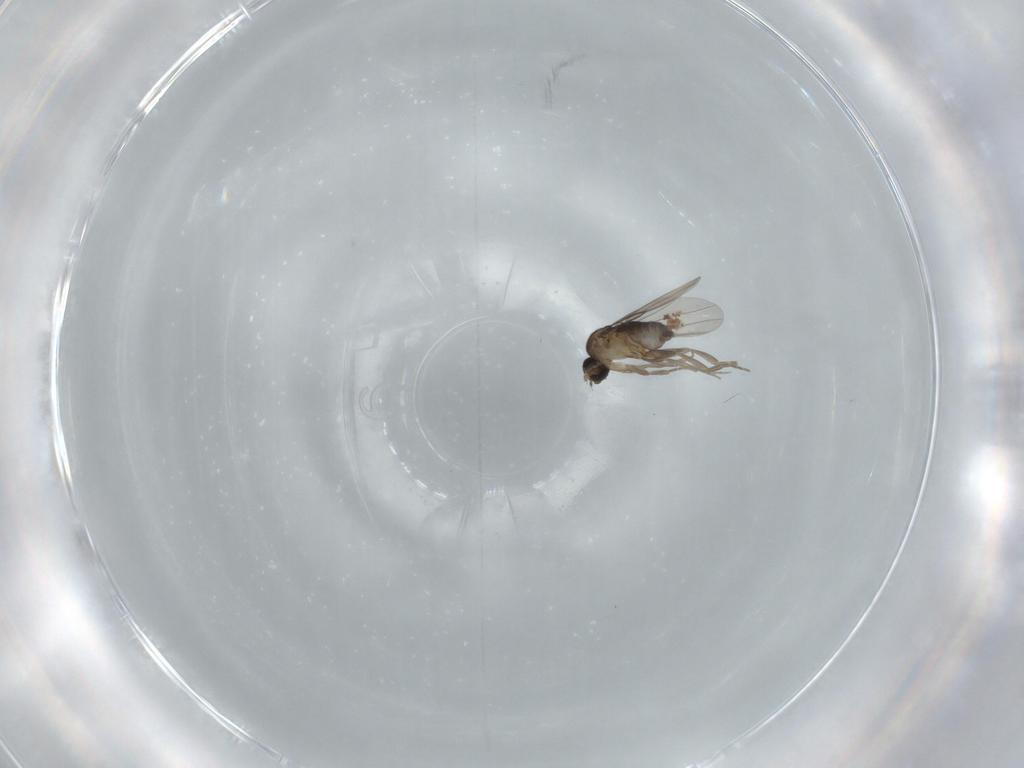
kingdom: Animalia
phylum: Arthropoda
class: Insecta
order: Diptera
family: Phoridae
